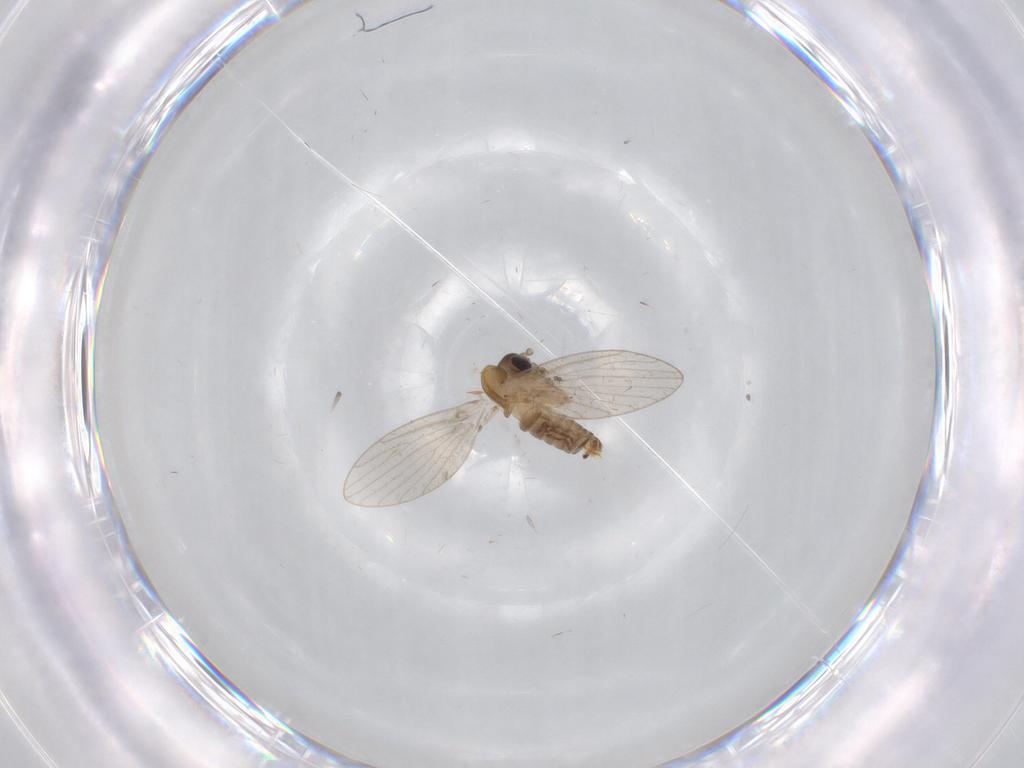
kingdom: Animalia
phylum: Arthropoda
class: Insecta
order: Diptera
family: Psychodidae
